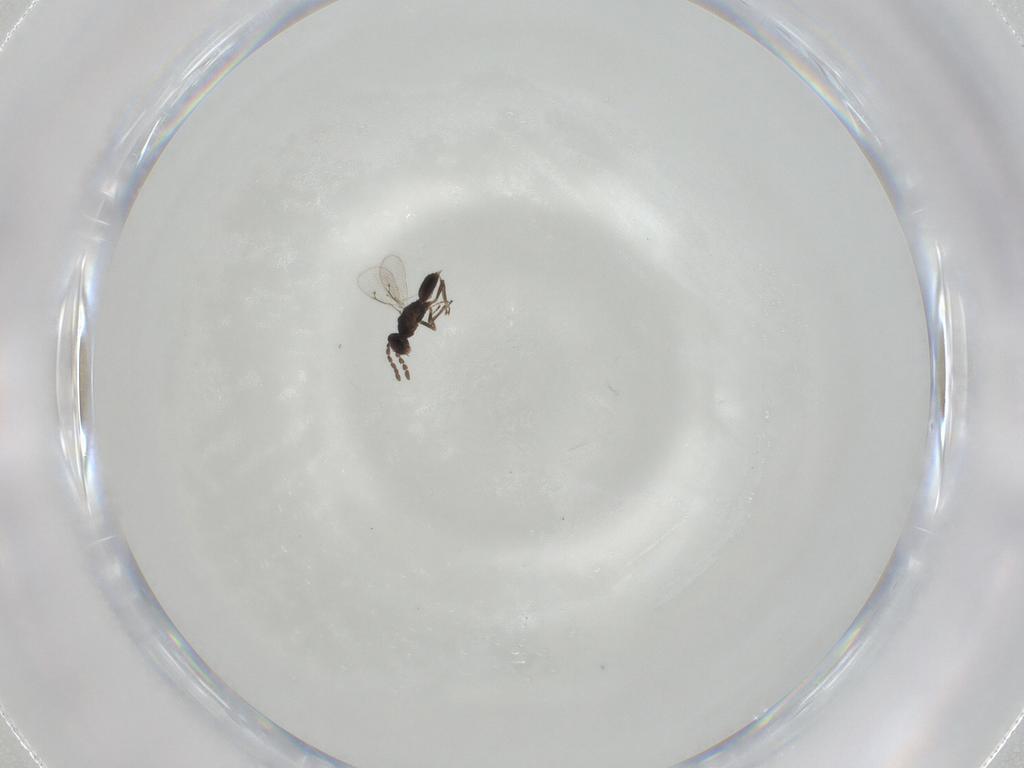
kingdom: Animalia
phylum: Arthropoda
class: Insecta
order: Hymenoptera
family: Eulophidae
